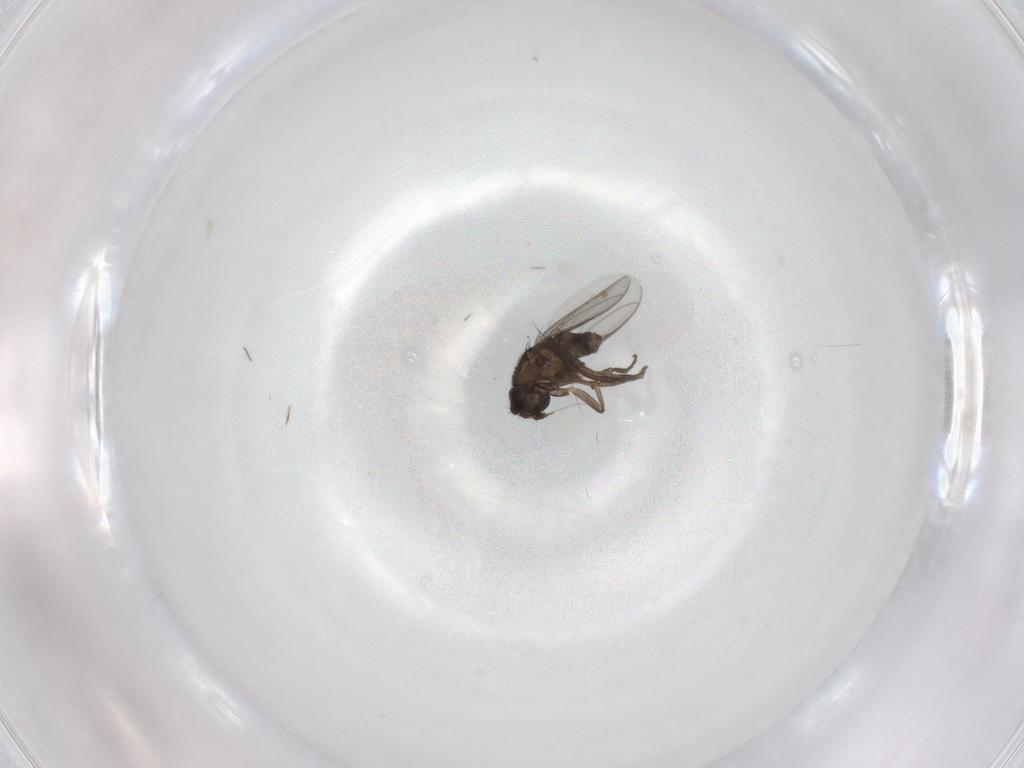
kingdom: Animalia
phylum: Arthropoda
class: Insecta
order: Diptera
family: Sphaeroceridae
